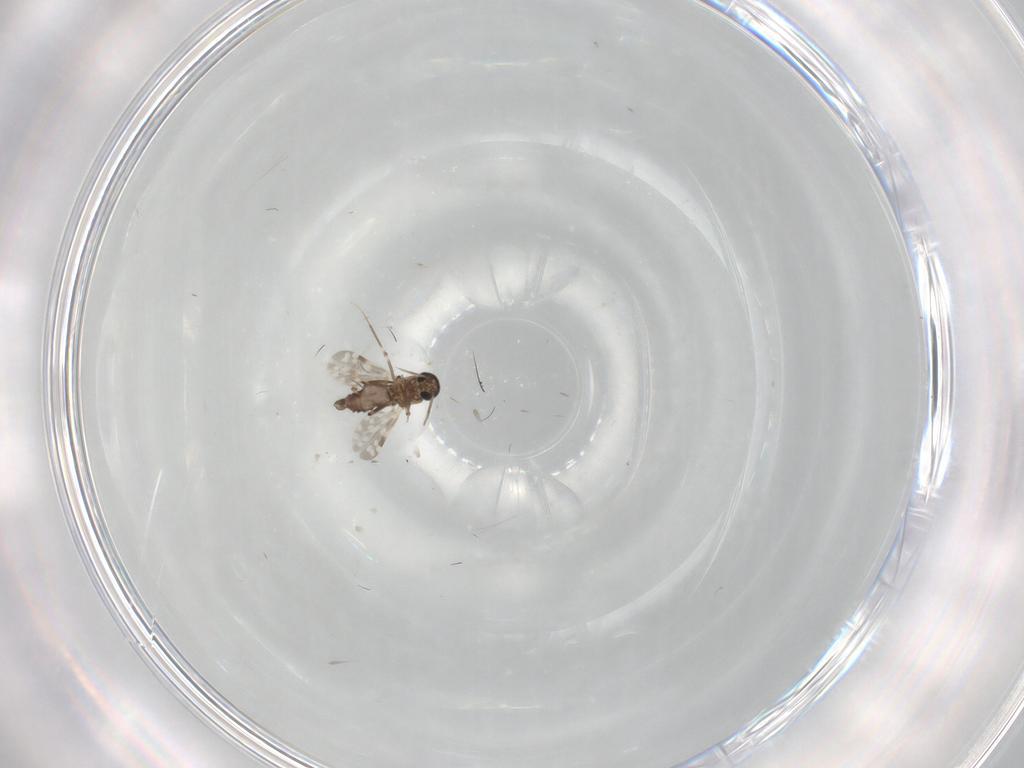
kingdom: Animalia
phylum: Arthropoda
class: Insecta
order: Diptera
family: Ceratopogonidae
